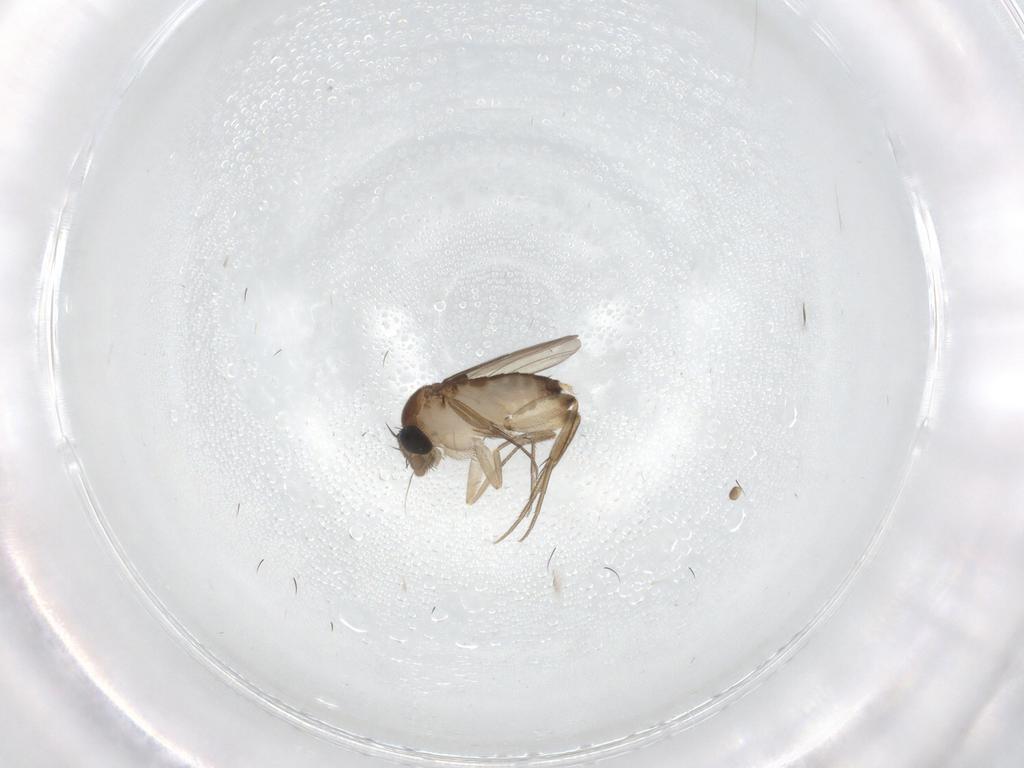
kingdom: Animalia
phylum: Arthropoda
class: Insecta
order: Diptera
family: Phoridae
